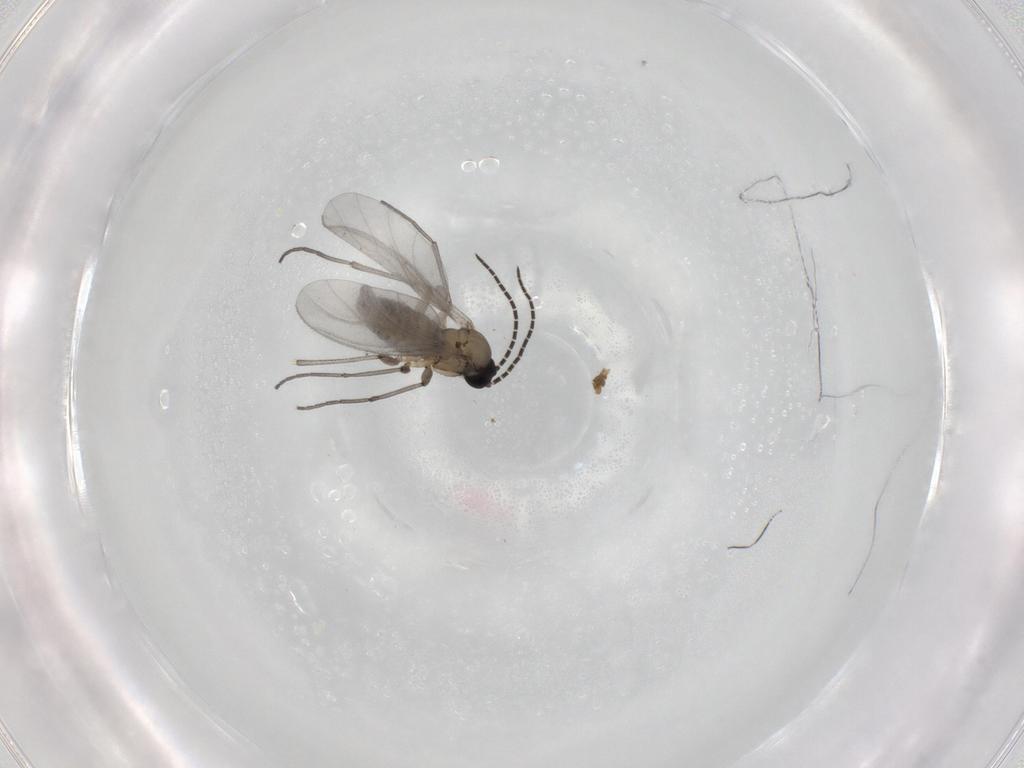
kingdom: Animalia
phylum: Arthropoda
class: Insecta
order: Diptera
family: Sciaridae
